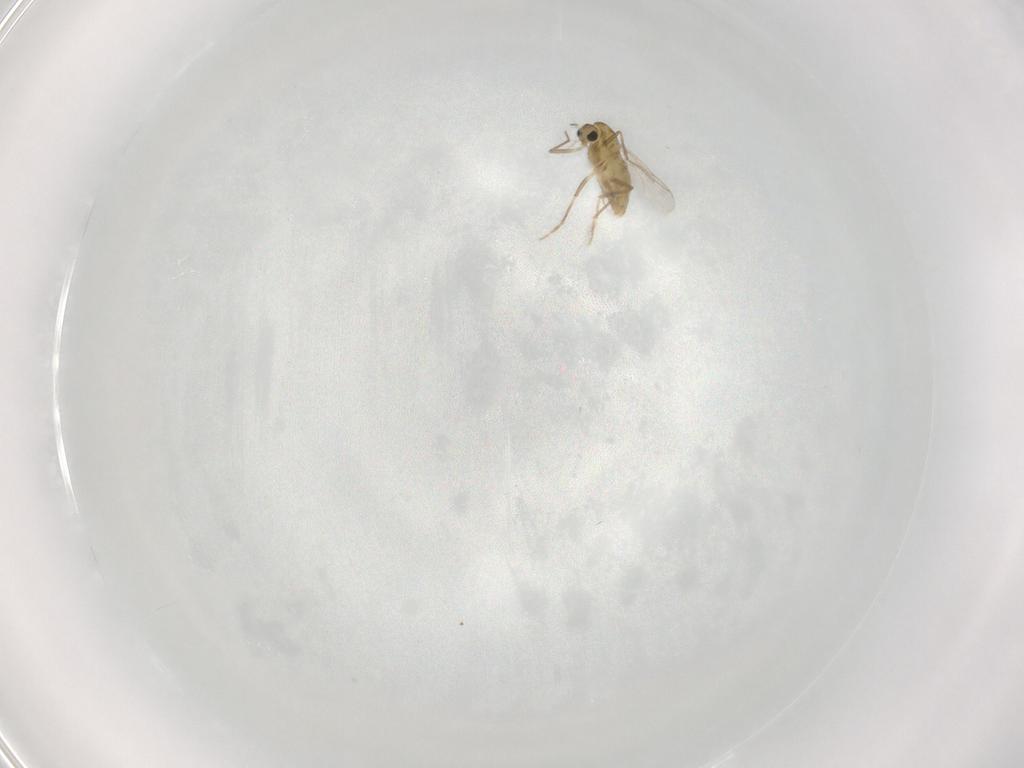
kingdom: Animalia
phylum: Arthropoda
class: Insecta
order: Diptera
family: Chironomidae
